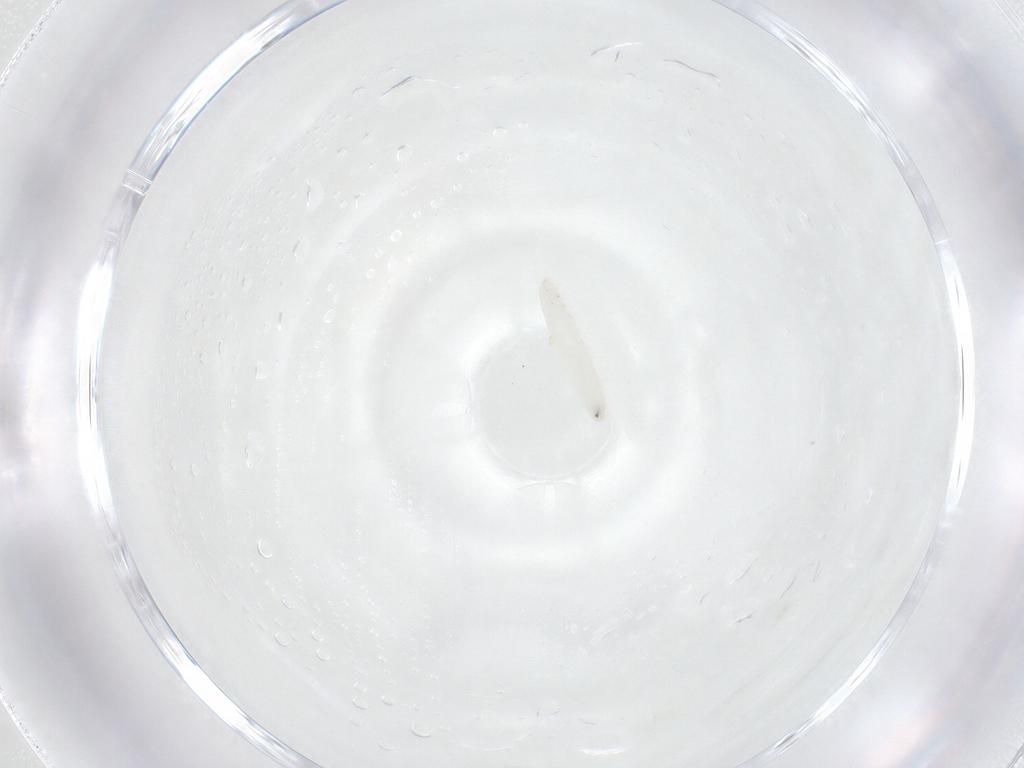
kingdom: Animalia
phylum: Arthropoda
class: Insecta
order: Diptera
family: Tachinidae
